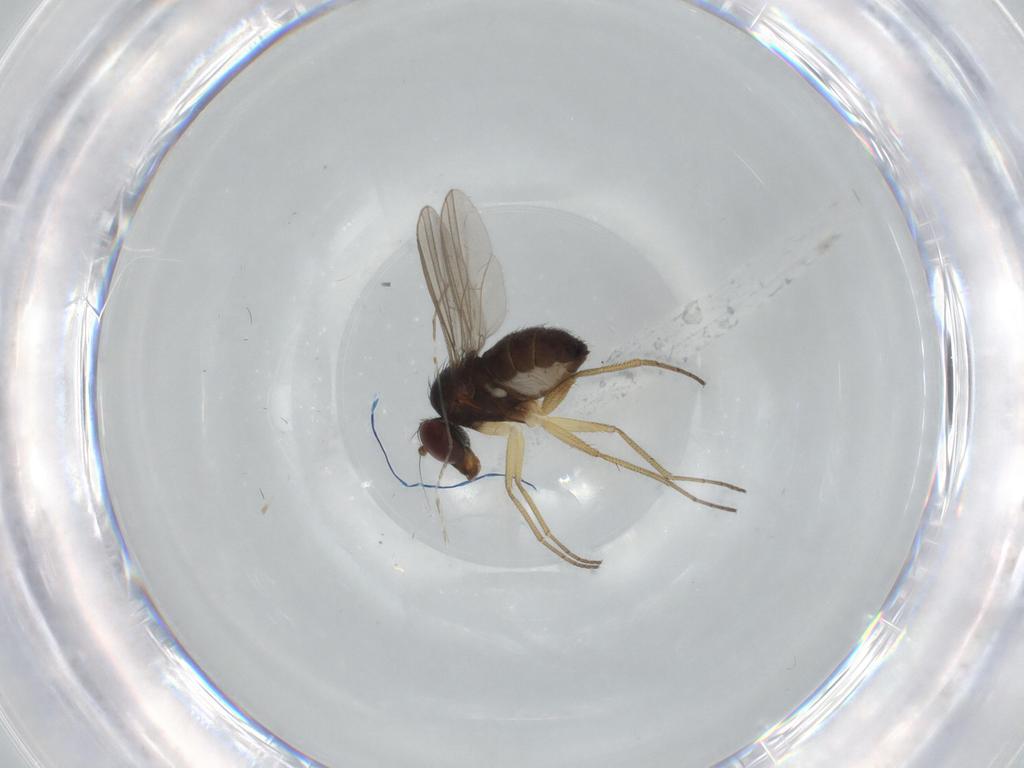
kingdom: Animalia
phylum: Arthropoda
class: Insecta
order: Diptera
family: Dolichopodidae
